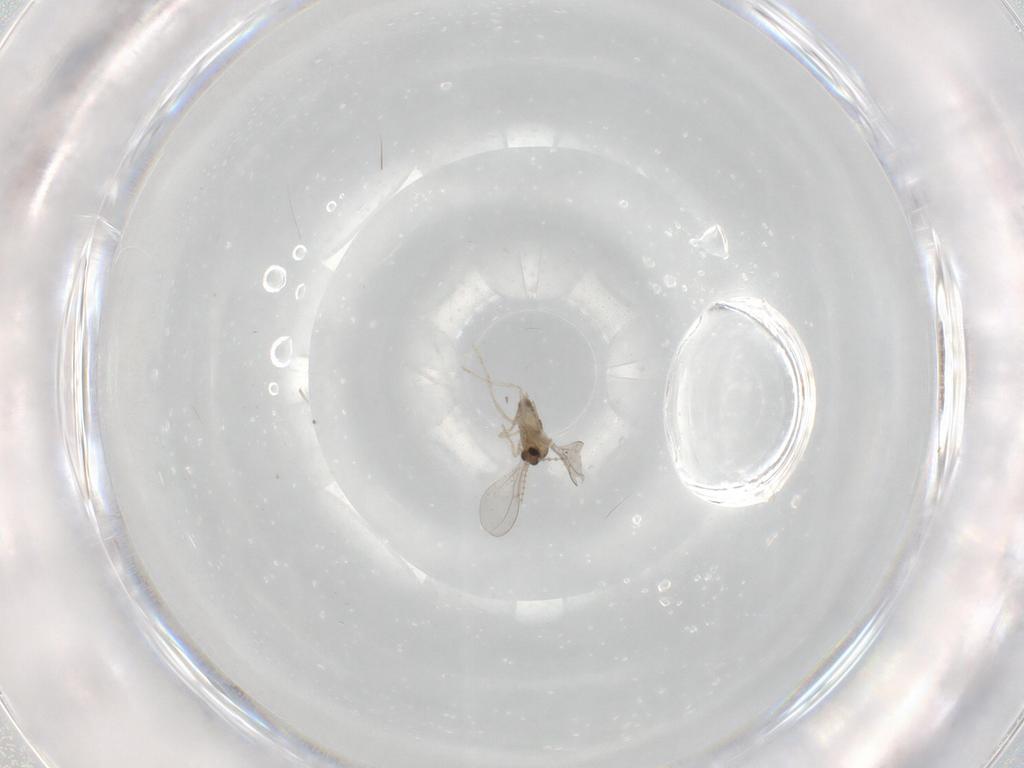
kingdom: Animalia
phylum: Arthropoda
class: Insecta
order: Diptera
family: Cecidomyiidae
